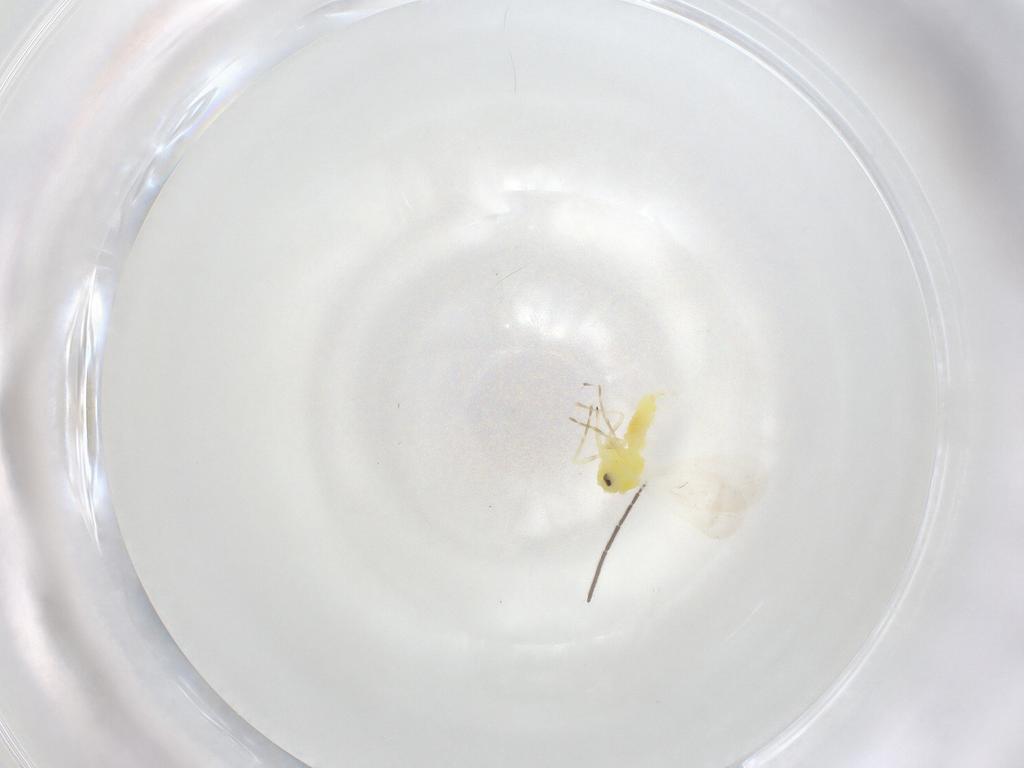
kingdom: Animalia
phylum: Arthropoda
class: Insecta
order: Hemiptera
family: Aleyrodidae
